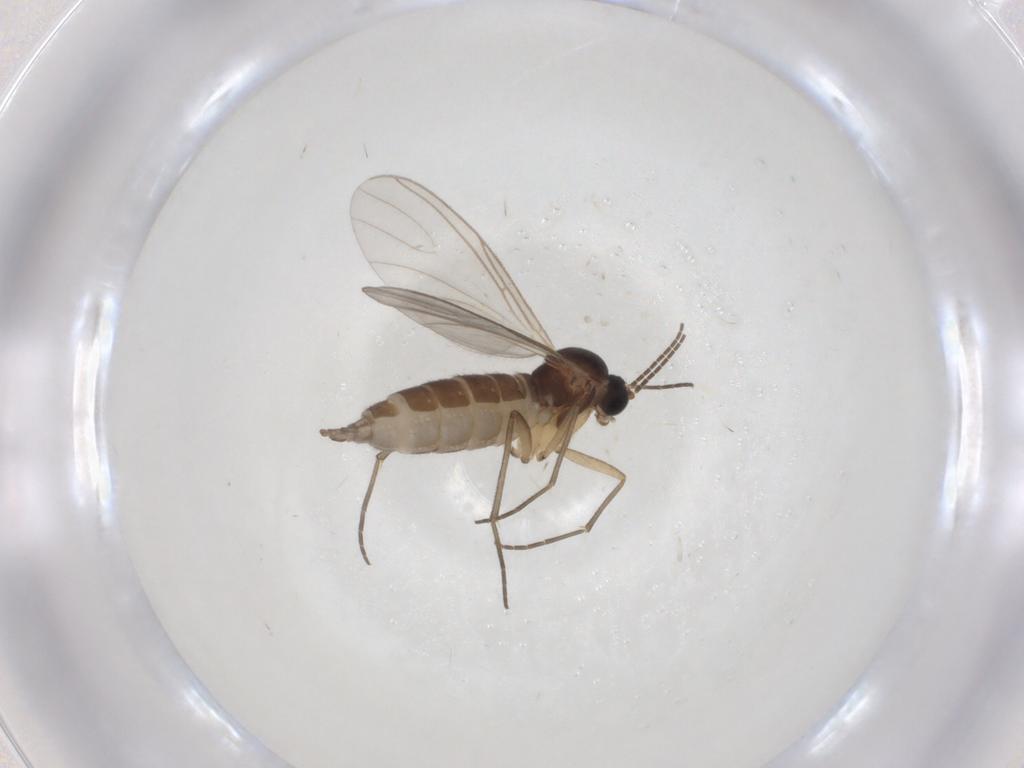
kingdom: Animalia
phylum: Arthropoda
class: Insecta
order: Diptera
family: Sciaridae
